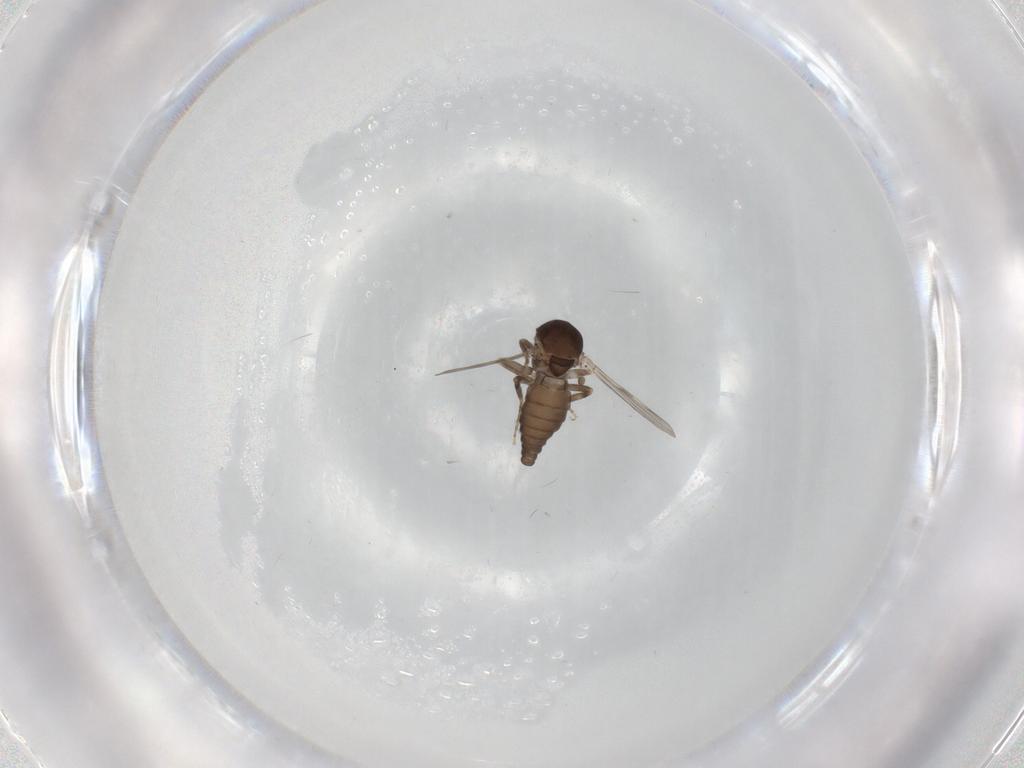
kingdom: Animalia
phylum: Arthropoda
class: Insecta
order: Diptera
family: Ceratopogonidae
